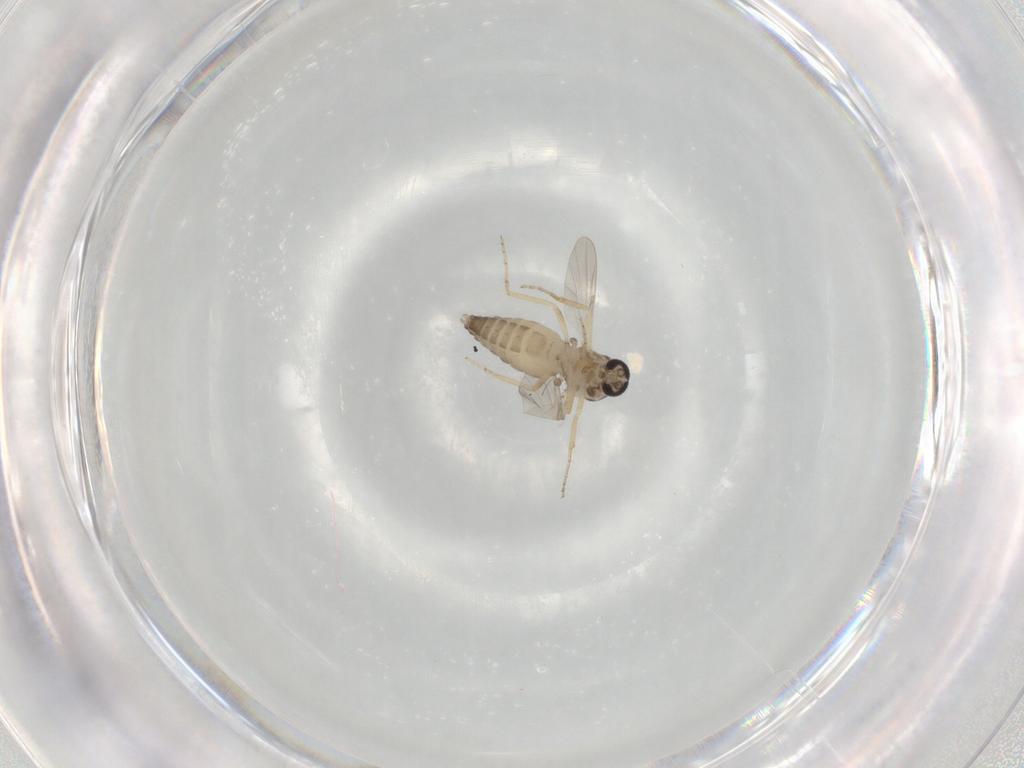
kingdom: Animalia
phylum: Arthropoda
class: Insecta
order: Diptera
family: Ceratopogonidae
